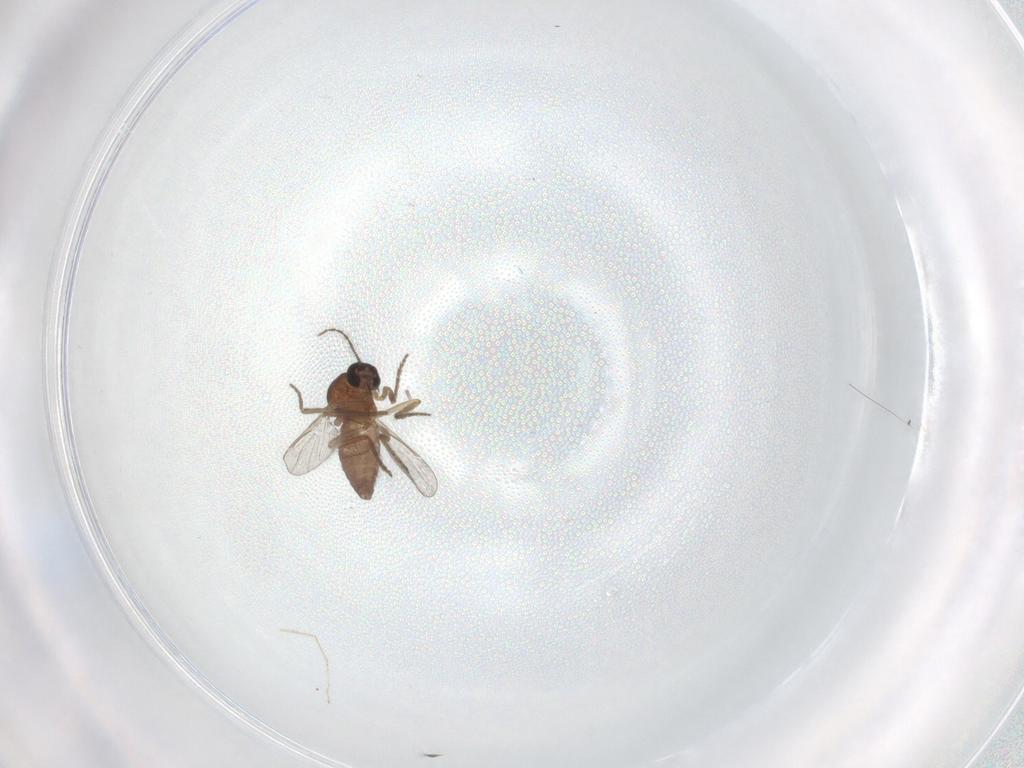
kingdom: Animalia
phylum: Arthropoda
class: Insecta
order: Diptera
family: Ceratopogonidae
